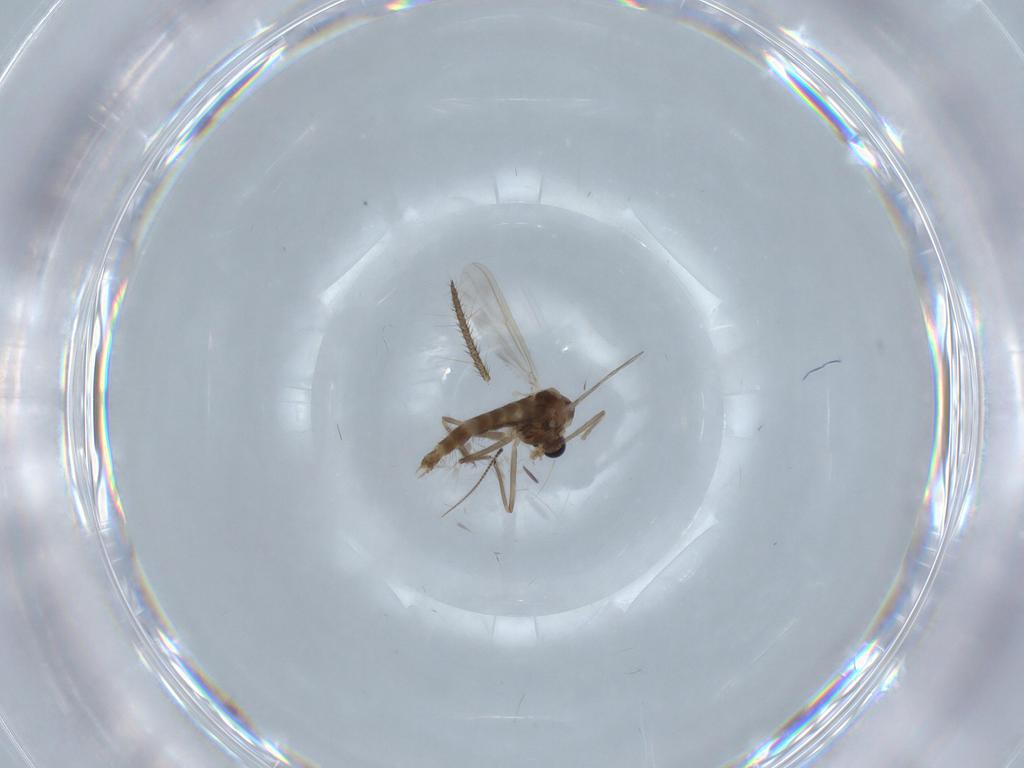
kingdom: Animalia
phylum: Arthropoda
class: Insecta
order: Diptera
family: Chironomidae
